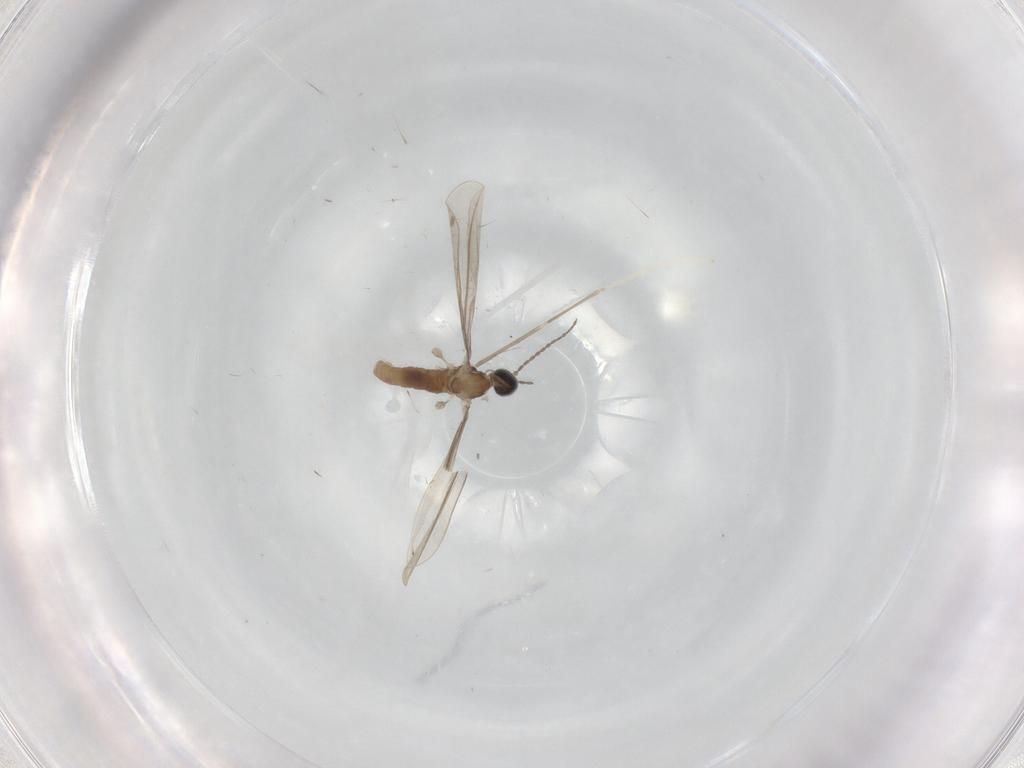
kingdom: Animalia
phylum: Arthropoda
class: Insecta
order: Diptera
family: Cecidomyiidae
